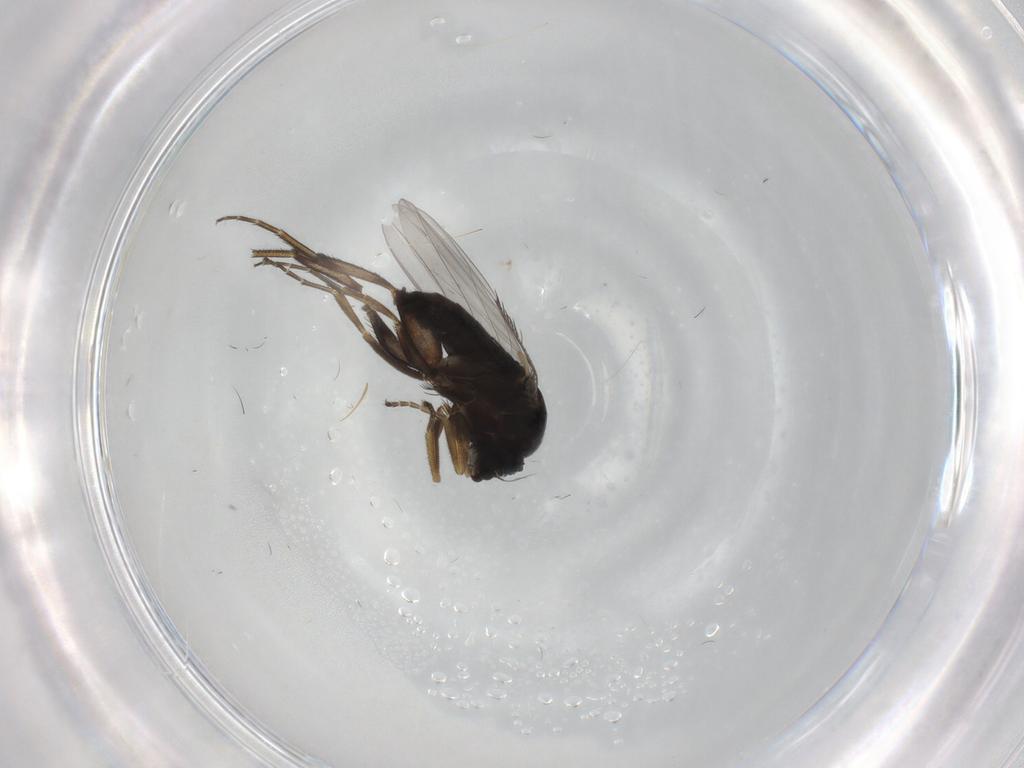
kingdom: Animalia
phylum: Arthropoda
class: Insecta
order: Diptera
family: Phoridae
